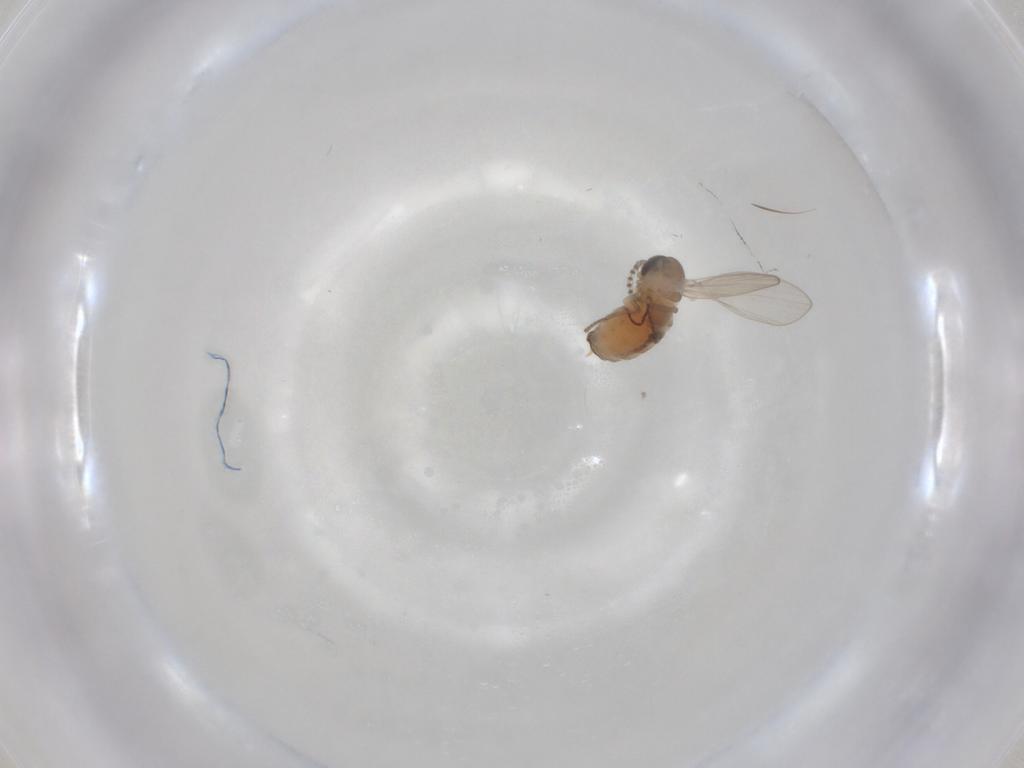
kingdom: Animalia
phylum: Arthropoda
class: Insecta
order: Diptera
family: Psychodidae
